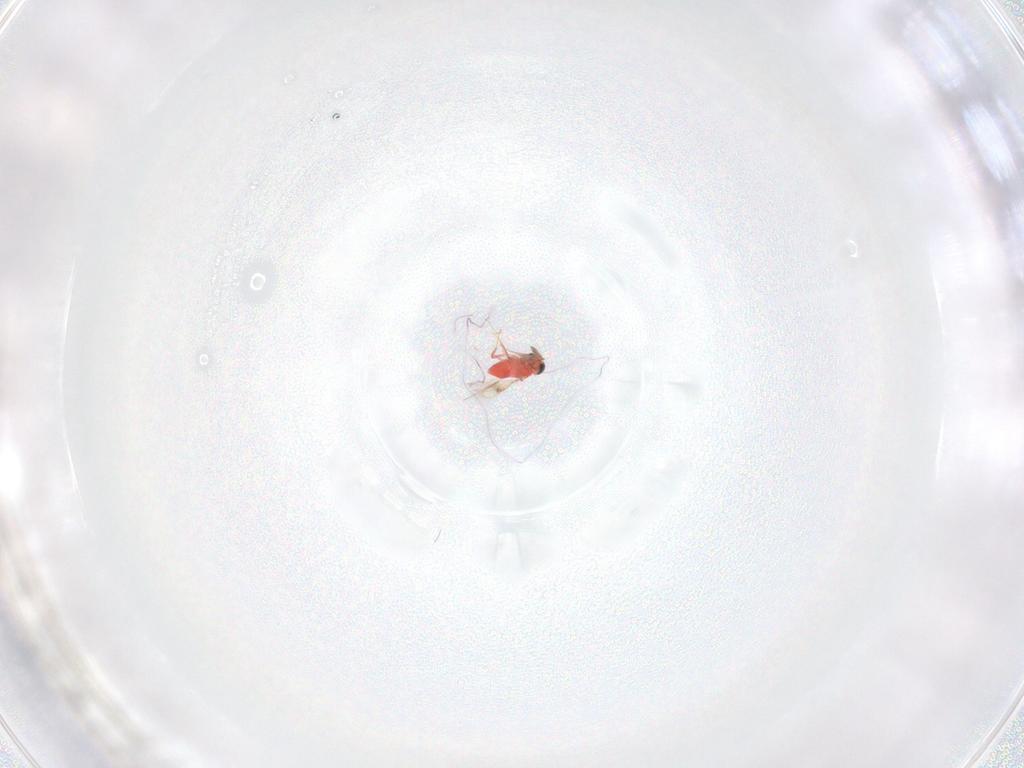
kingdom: Animalia
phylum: Arthropoda
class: Insecta
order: Hymenoptera
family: Trichogrammatidae
